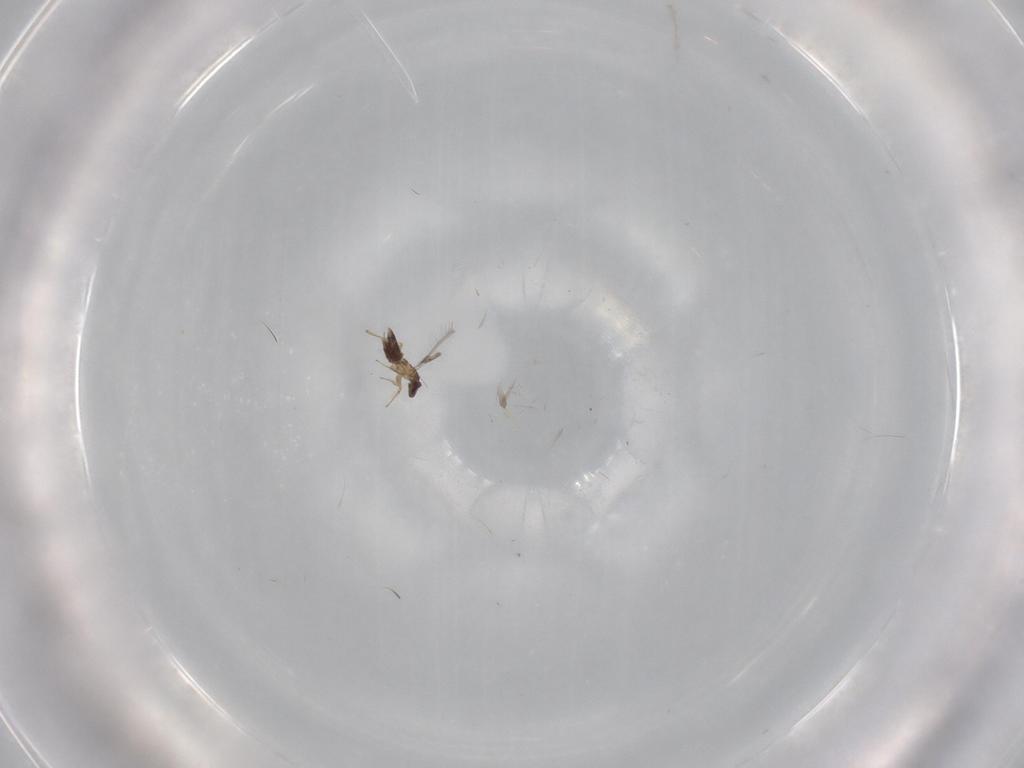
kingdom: Animalia
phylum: Arthropoda
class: Insecta
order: Hymenoptera
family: Mymaridae
